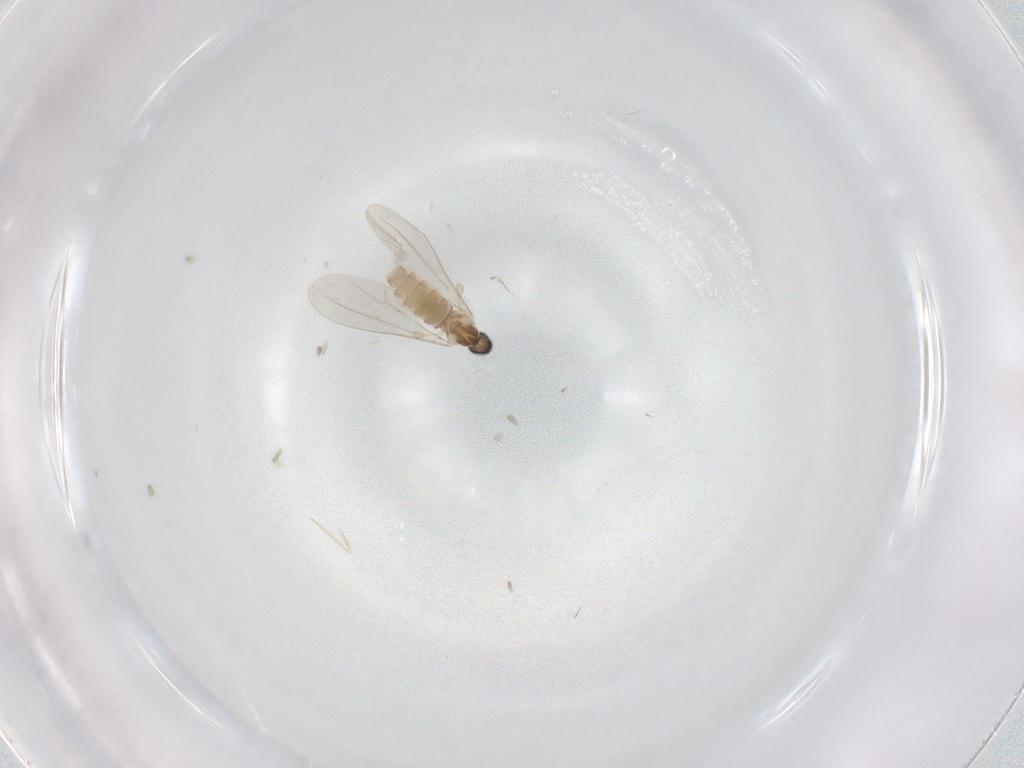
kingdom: Animalia
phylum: Arthropoda
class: Insecta
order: Diptera
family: Cecidomyiidae
